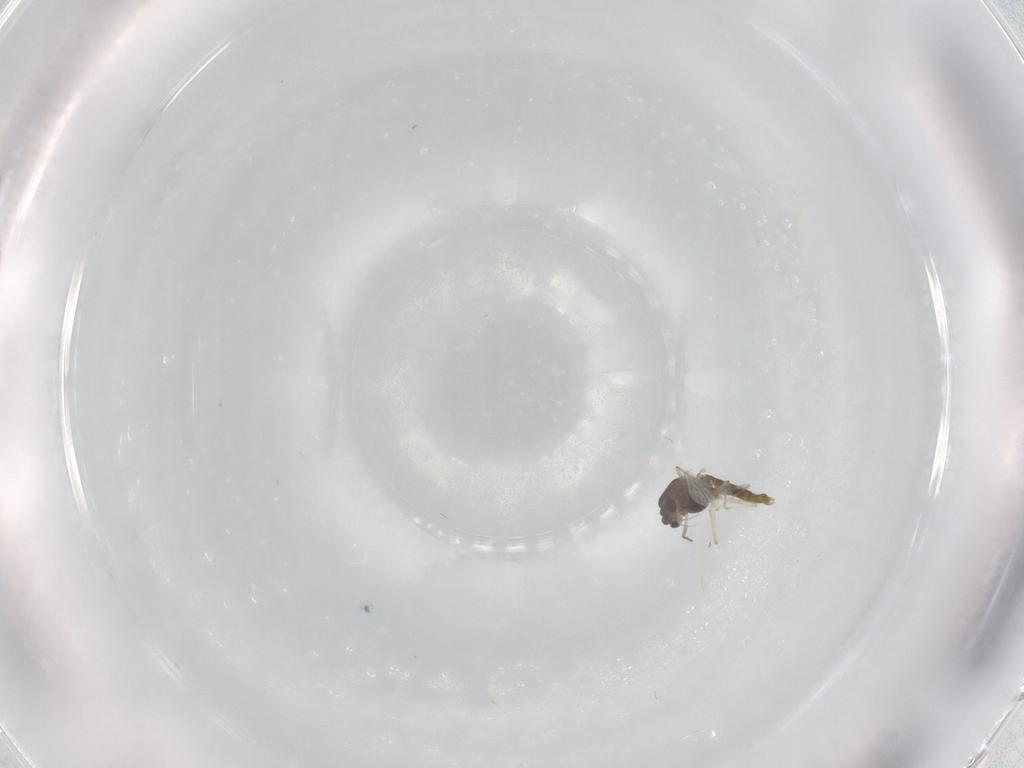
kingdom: Animalia
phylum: Arthropoda
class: Insecta
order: Diptera
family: Chironomidae
